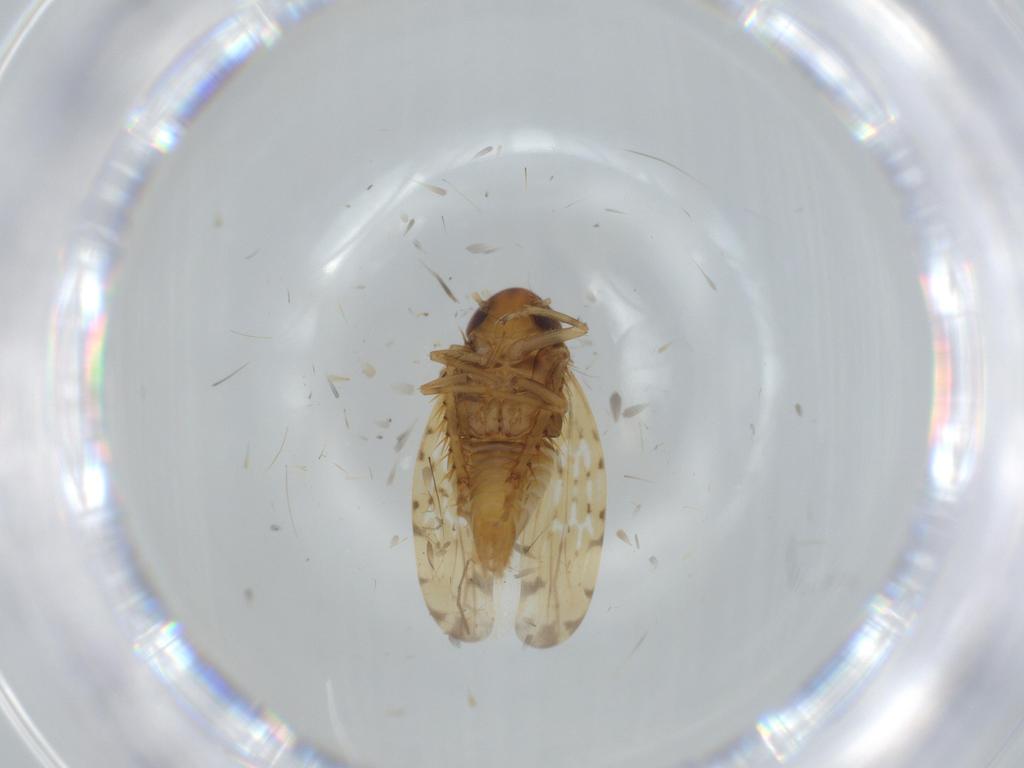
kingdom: Animalia
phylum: Arthropoda
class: Insecta
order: Hemiptera
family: Cicadellidae
